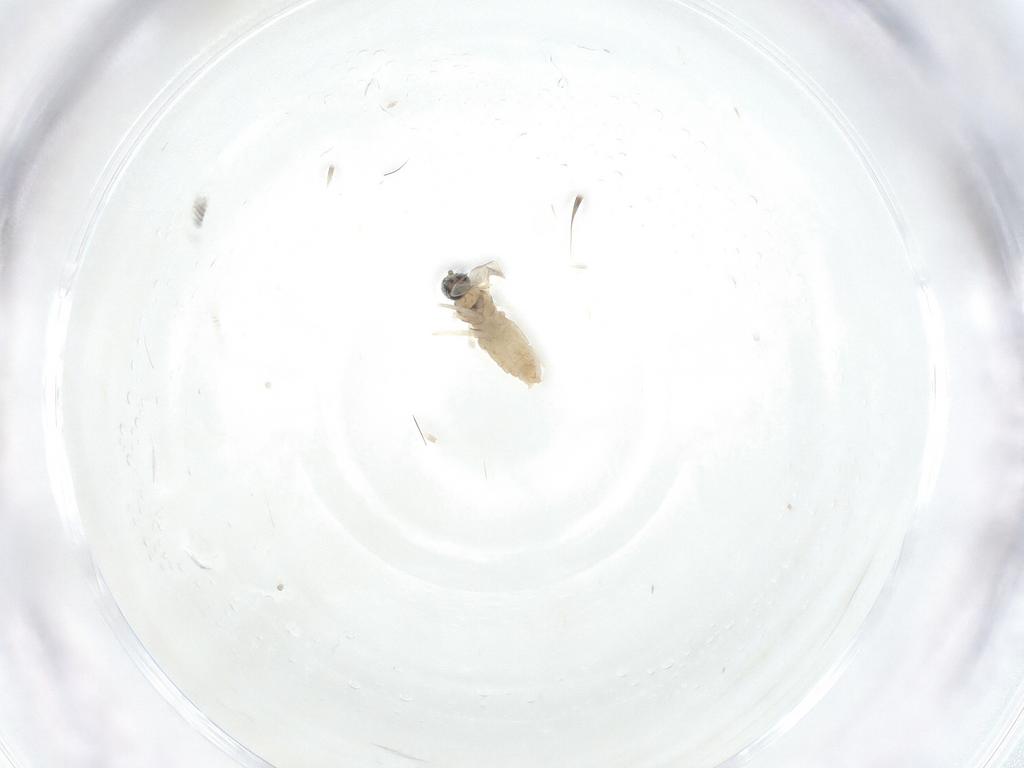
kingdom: Animalia
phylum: Arthropoda
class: Insecta
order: Diptera
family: Cecidomyiidae
